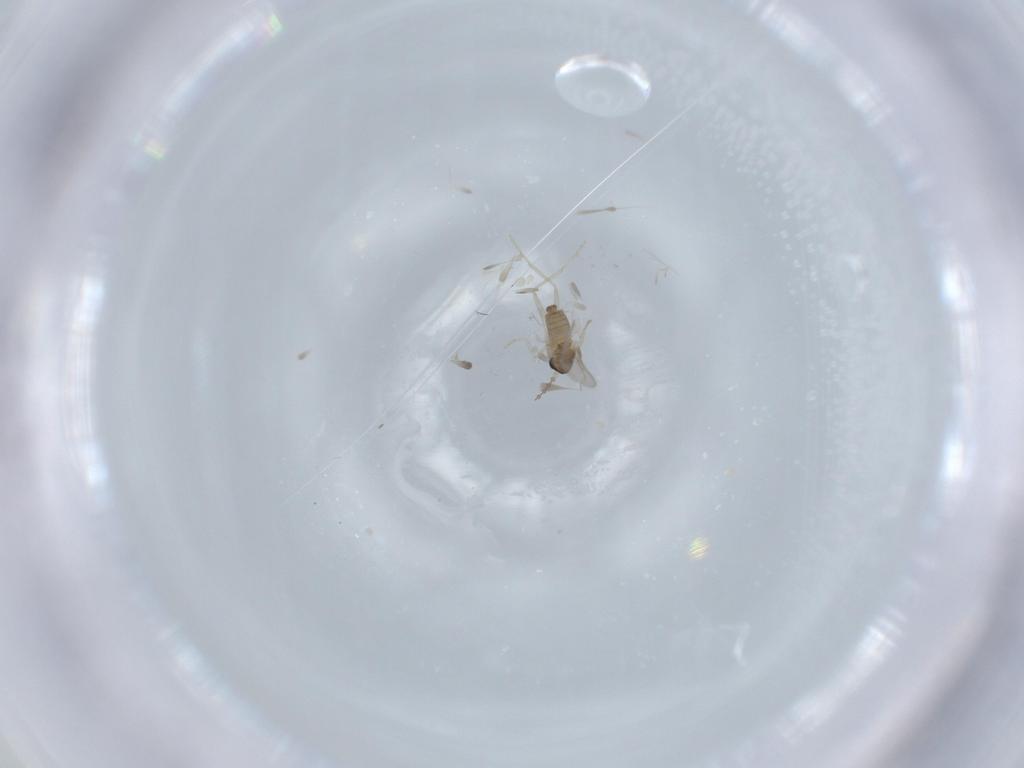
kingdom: Animalia
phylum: Arthropoda
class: Insecta
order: Diptera
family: Cecidomyiidae
